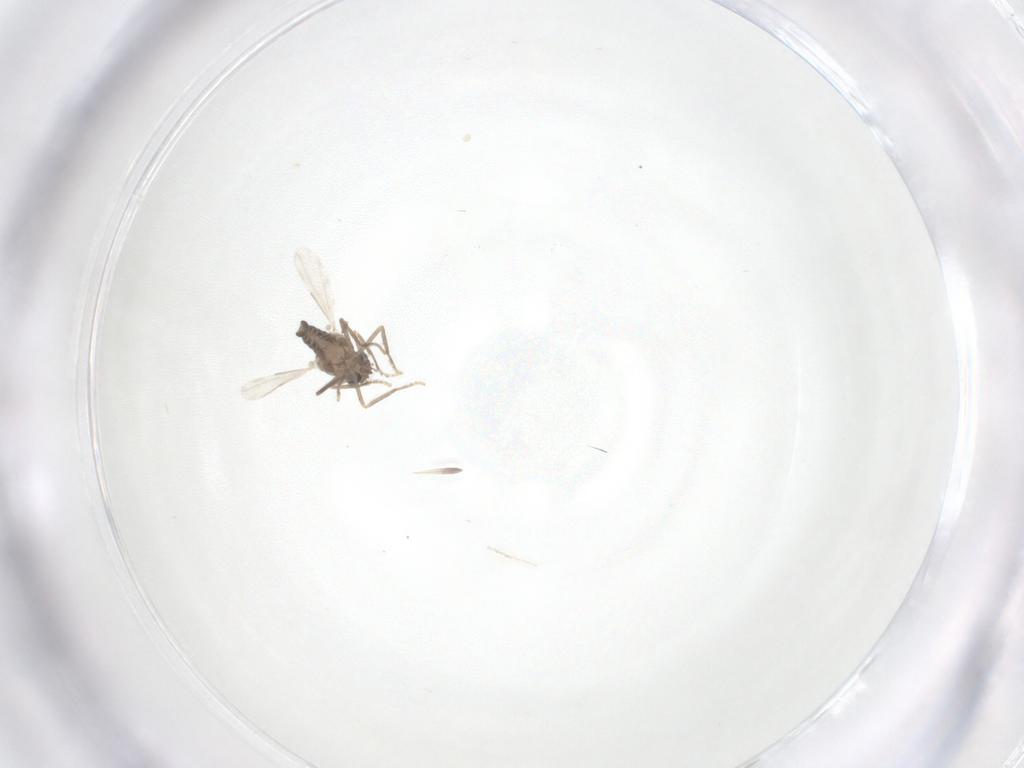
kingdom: Animalia
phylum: Arthropoda
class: Insecta
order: Diptera
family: Ceratopogonidae
